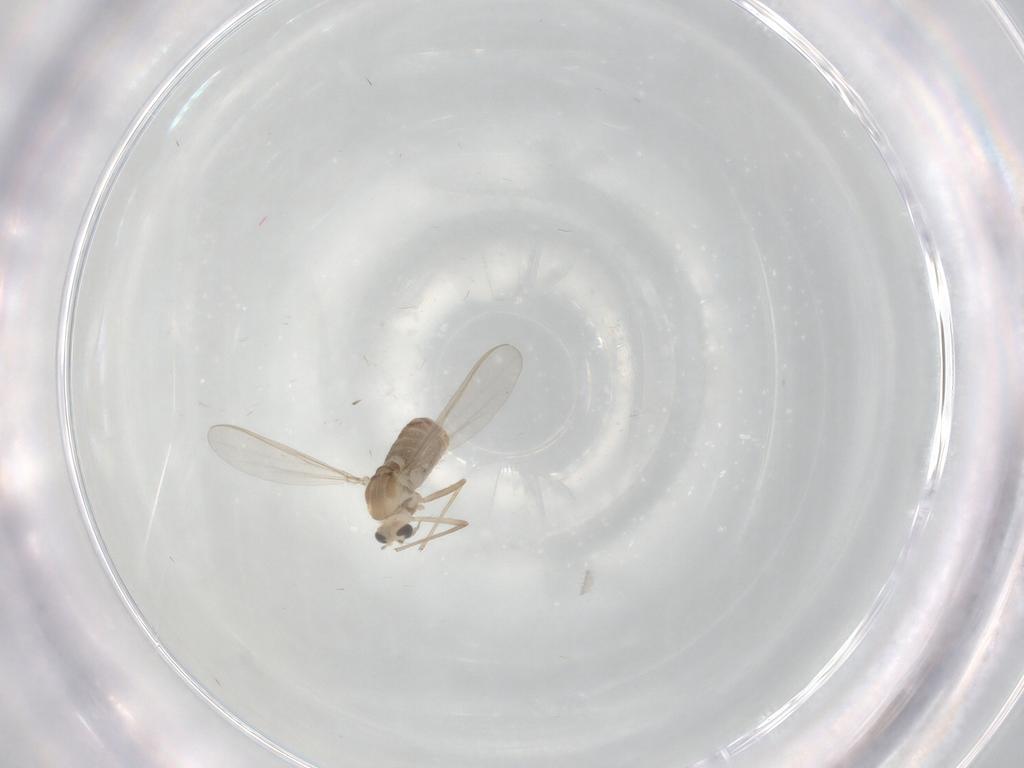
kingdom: Animalia
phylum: Arthropoda
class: Insecta
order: Diptera
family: Chironomidae
